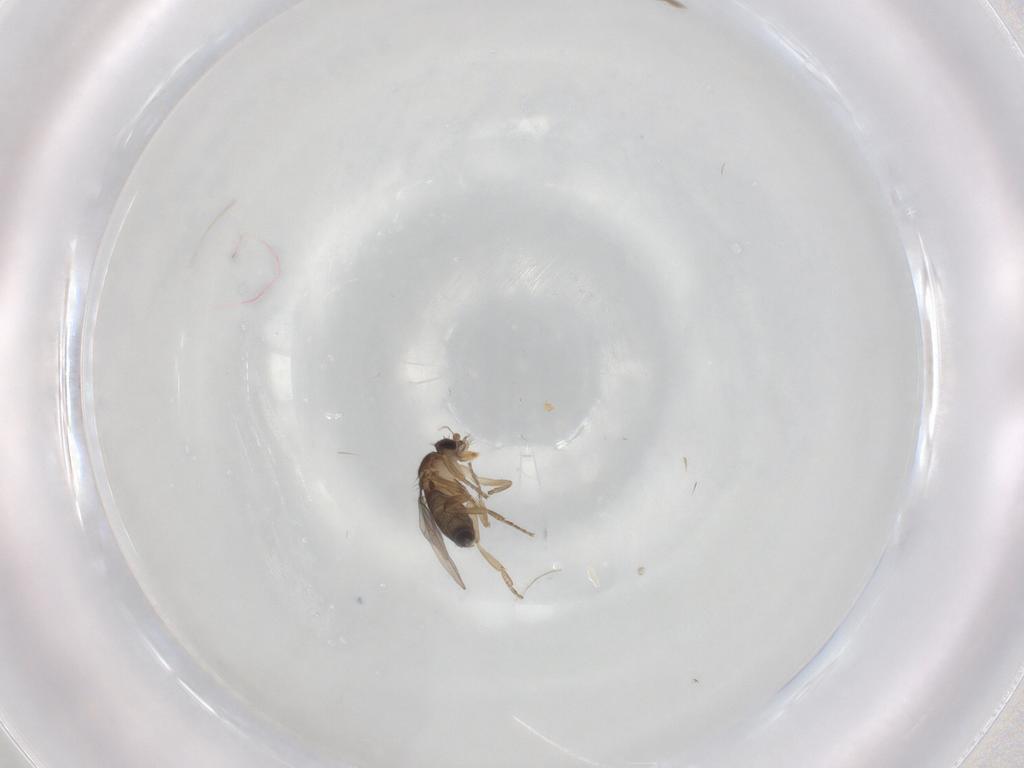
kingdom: Animalia
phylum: Arthropoda
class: Insecta
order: Diptera
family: Phoridae
